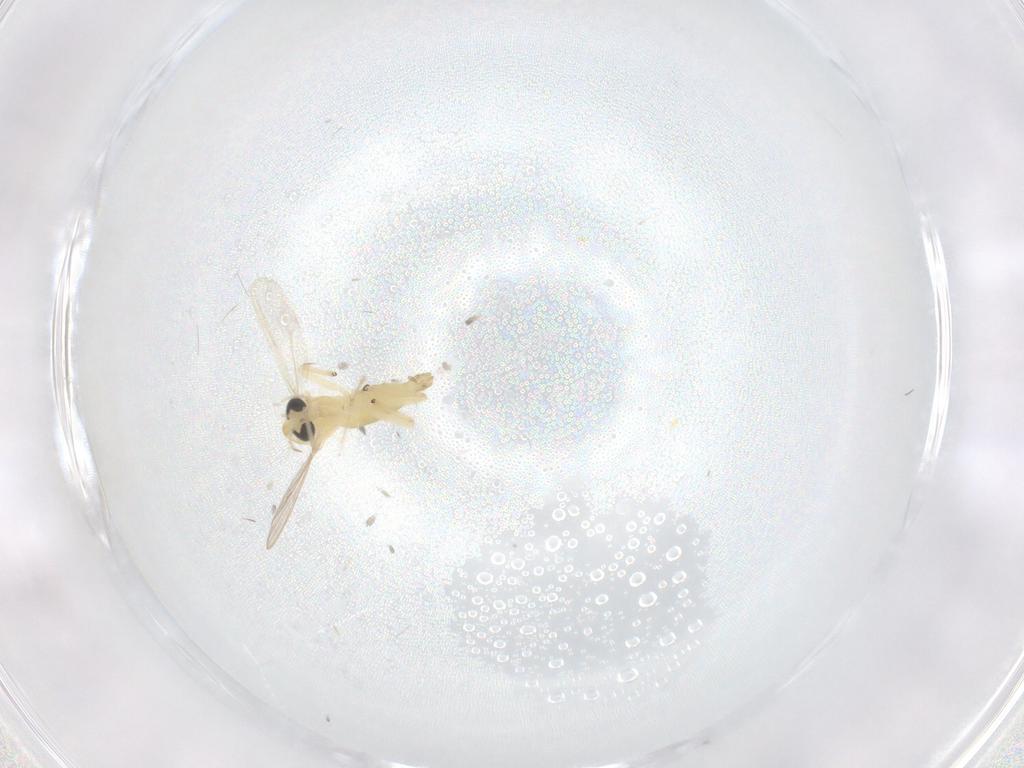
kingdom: Animalia
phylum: Arthropoda
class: Insecta
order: Diptera
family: Chironomidae
